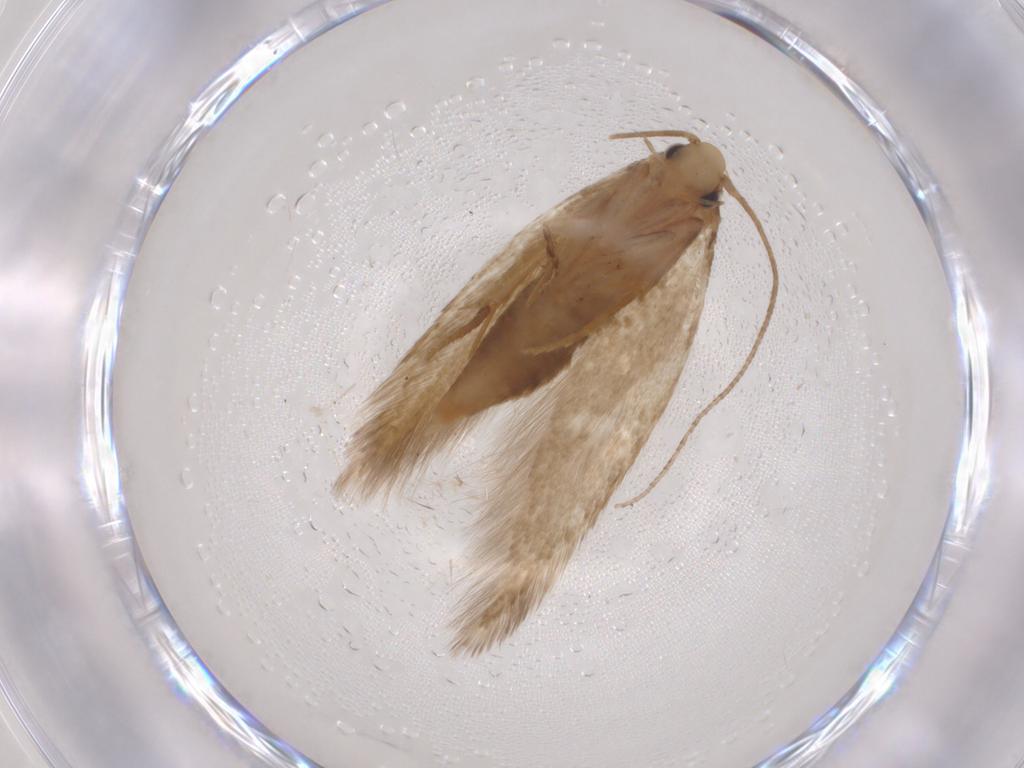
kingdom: Animalia
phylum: Arthropoda
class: Insecta
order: Lepidoptera
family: Tineidae
